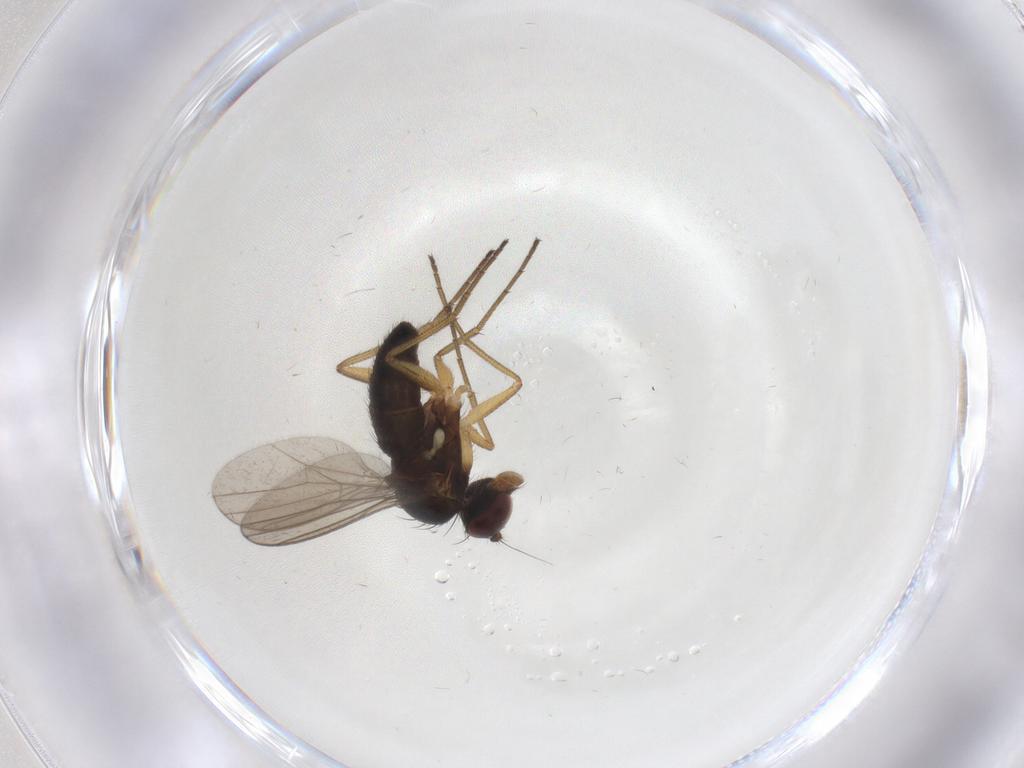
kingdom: Animalia
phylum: Arthropoda
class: Insecta
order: Diptera
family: Dolichopodidae
